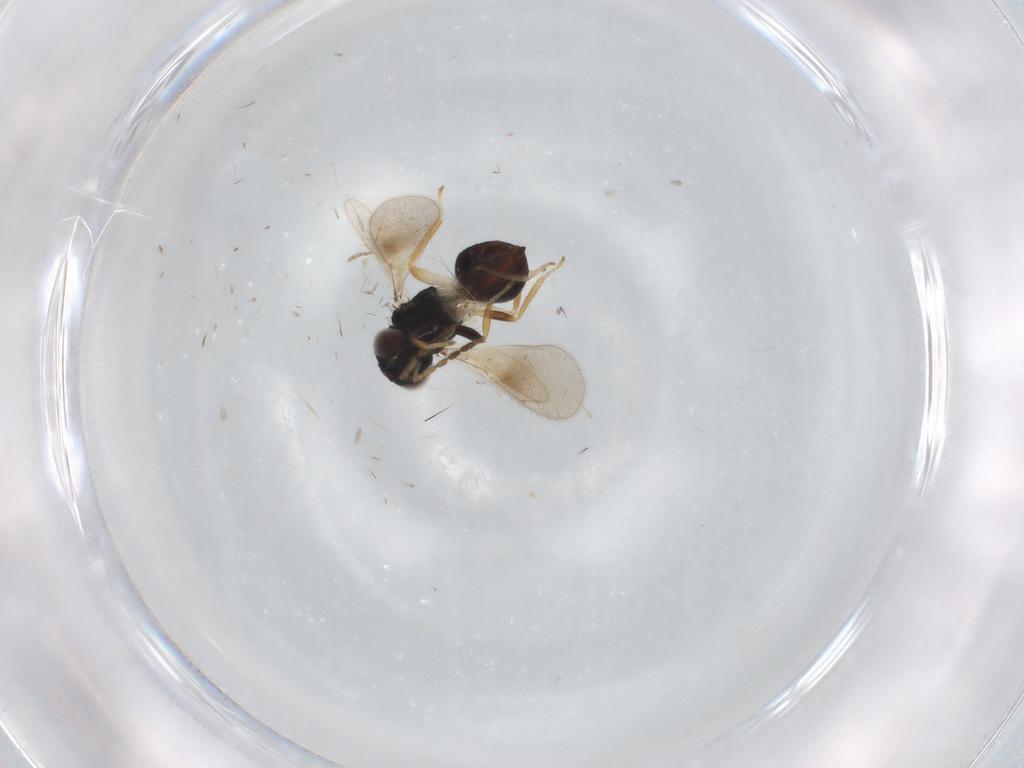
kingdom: Animalia
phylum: Arthropoda
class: Insecta
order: Hymenoptera
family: Eulophidae
